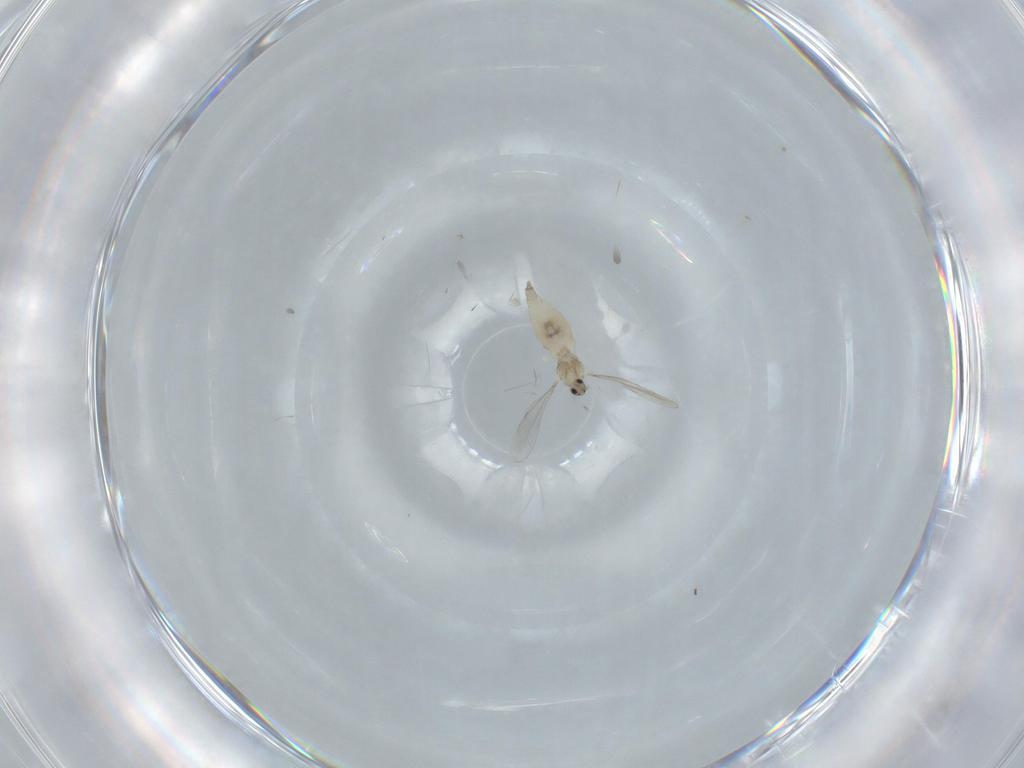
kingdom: Animalia
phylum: Arthropoda
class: Insecta
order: Diptera
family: Cecidomyiidae
